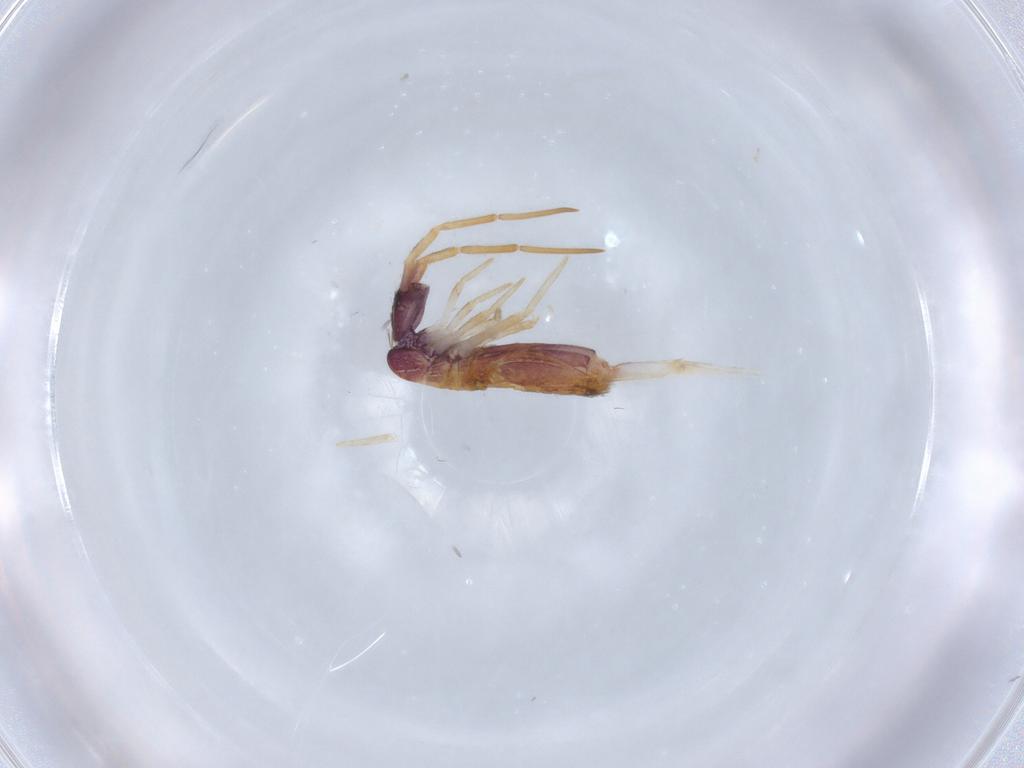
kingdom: Animalia
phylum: Arthropoda
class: Collembola
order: Entomobryomorpha
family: Entomobryidae
